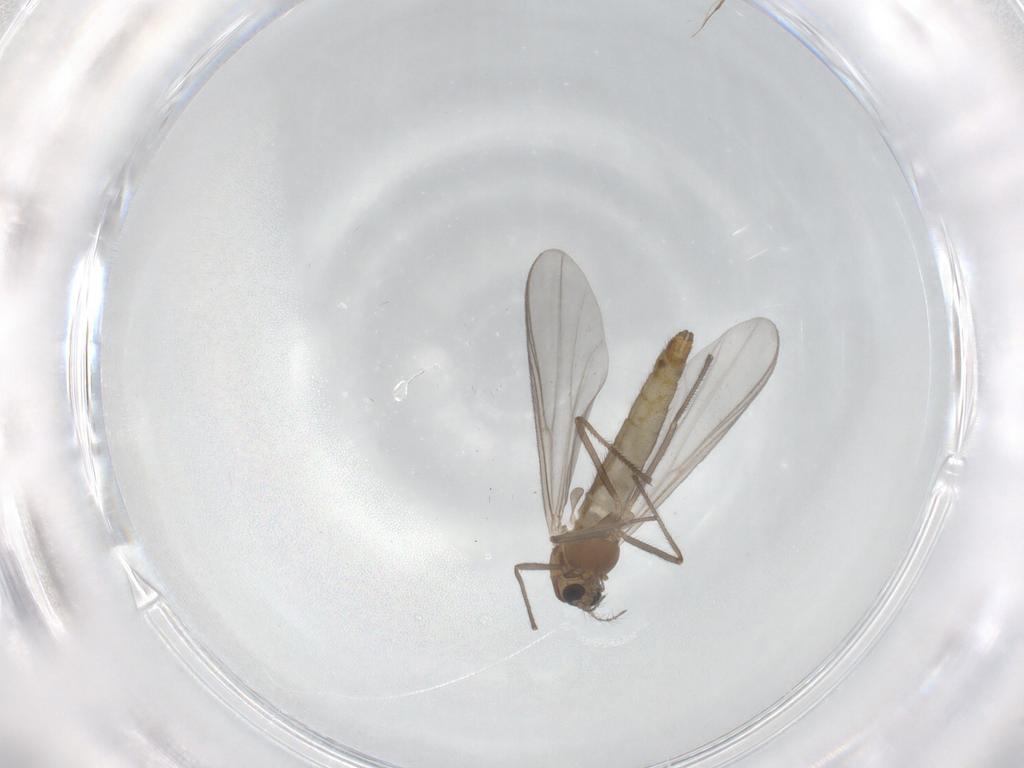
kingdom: Animalia
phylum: Arthropoda
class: Insecta
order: Diptera
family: Chironomidae
